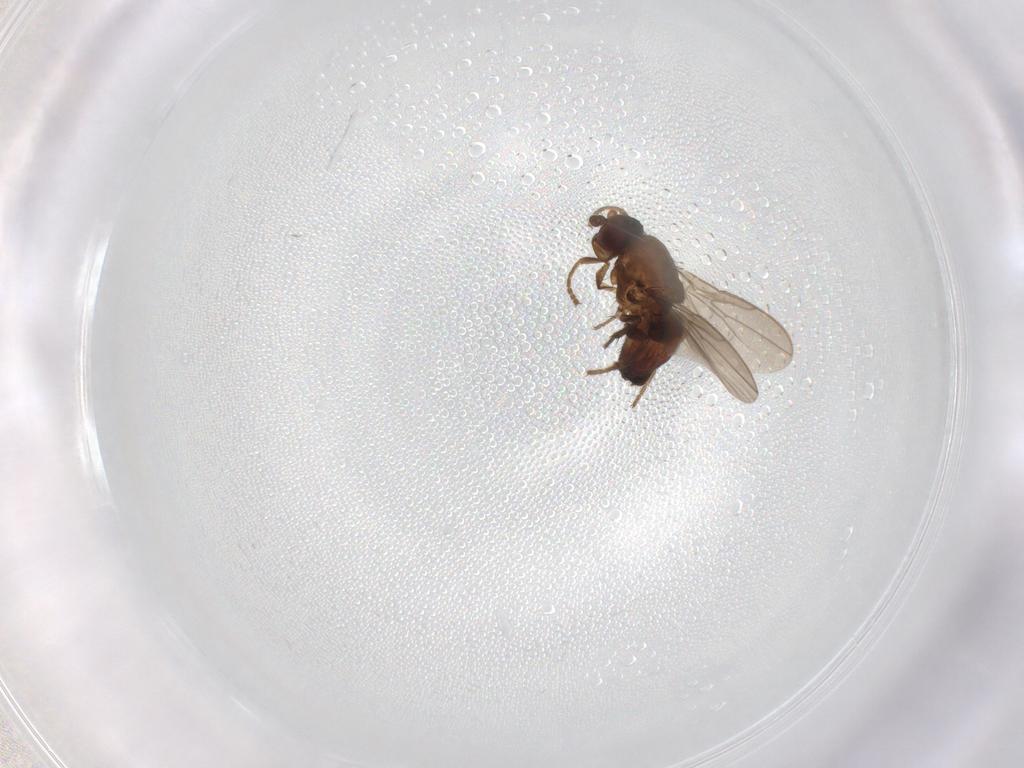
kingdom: Animalia
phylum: Arthropoda
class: Insecta
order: Diptera
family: Sphaeroceridae
